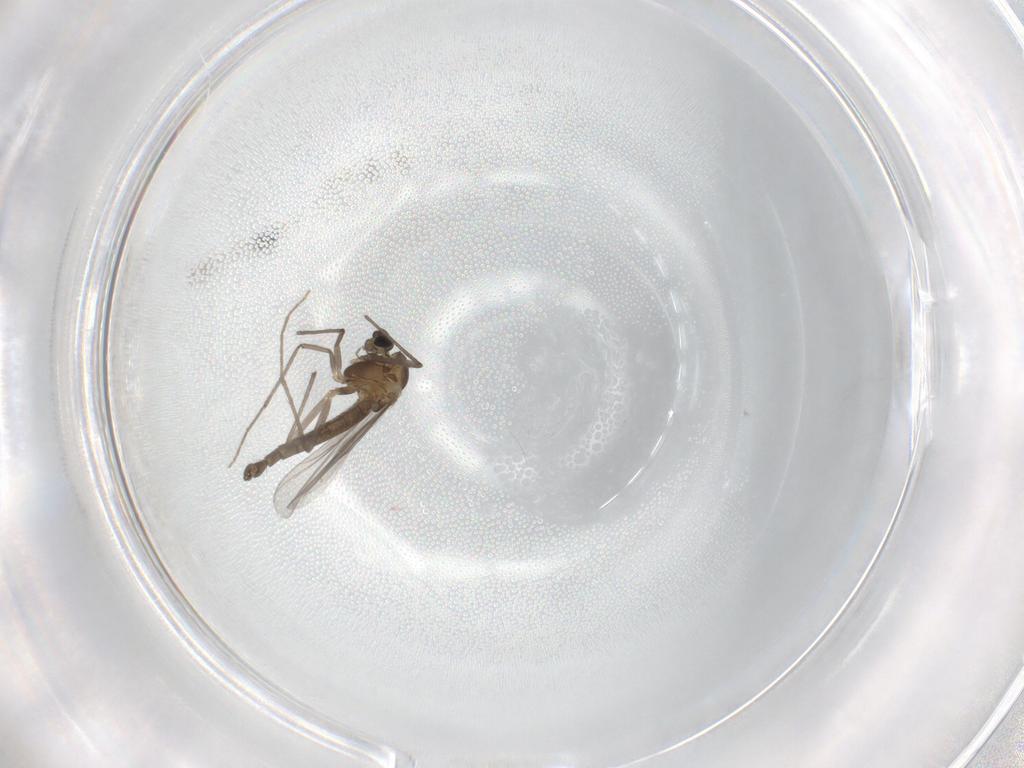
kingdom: Animalia
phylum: Arthropoda
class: Insecta
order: Diptera
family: Chironomidae
